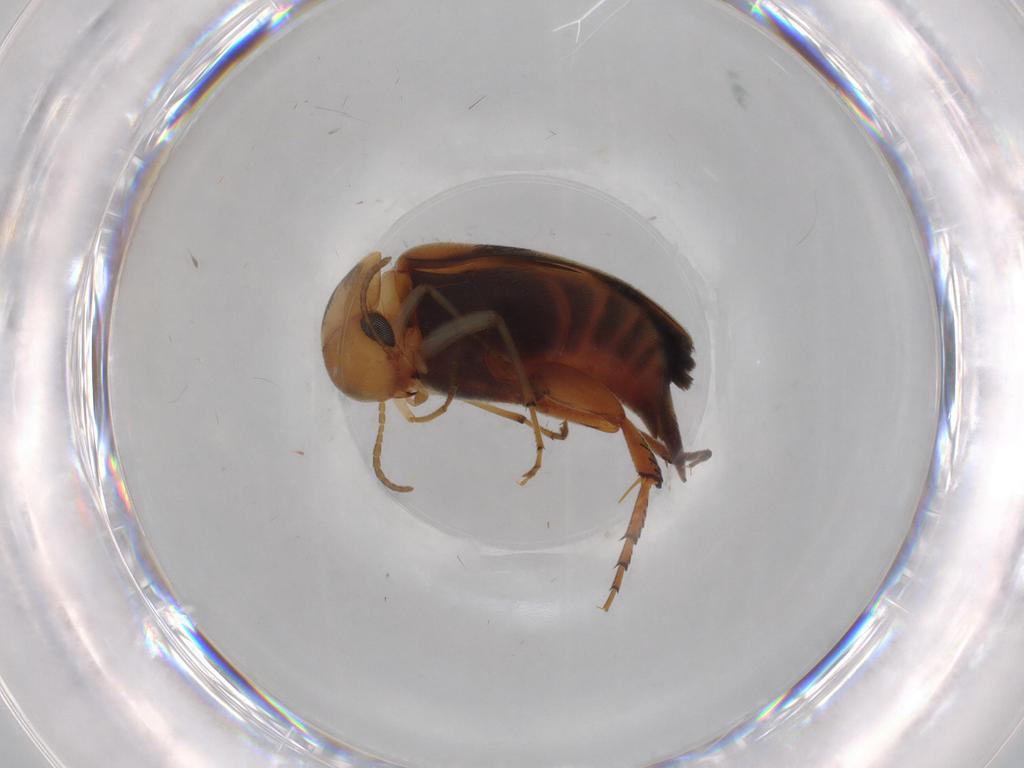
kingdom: Animalia
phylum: Arthropoda
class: Insecta
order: Coleoptera
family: Mordellidae
